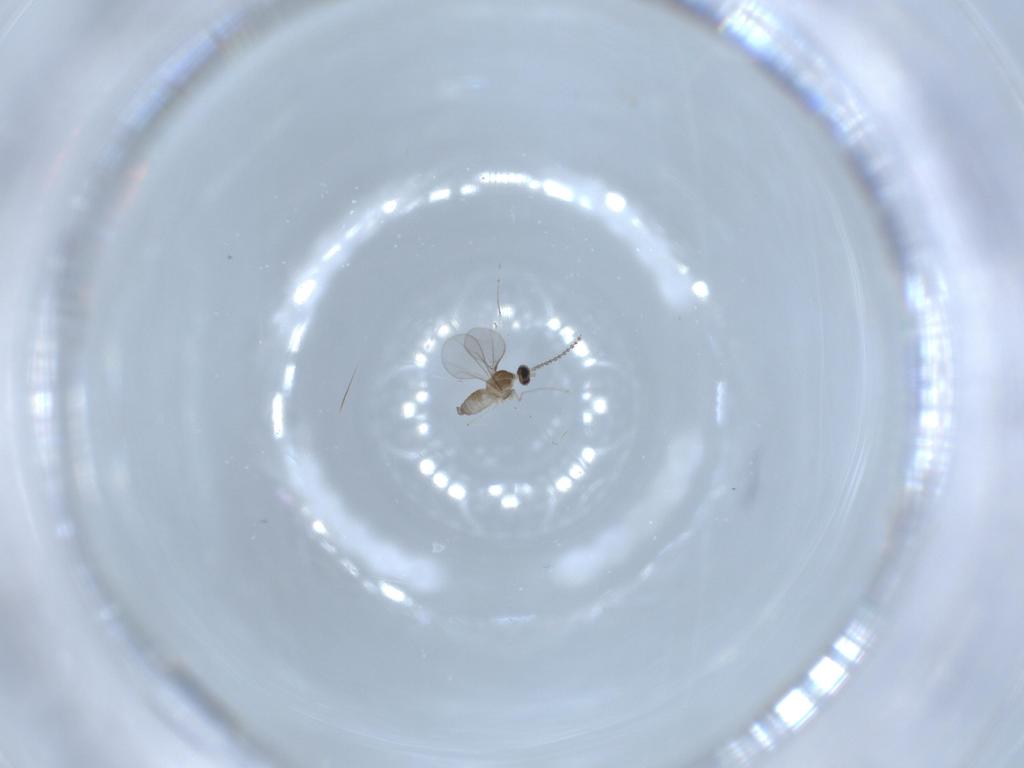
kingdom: Animalia
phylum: Arthropoda
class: Insecta
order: Diptera
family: Cecidomyiidae
